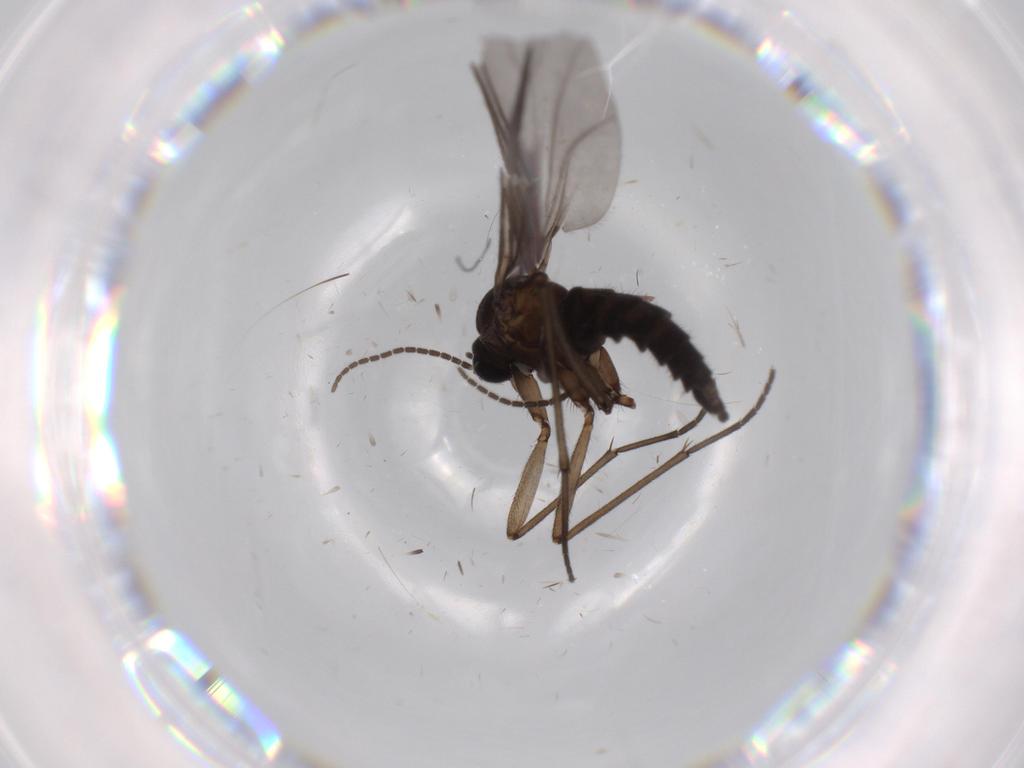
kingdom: Animalia
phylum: Arthropoda
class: Insecta
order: Diptera
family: Sciaridae
